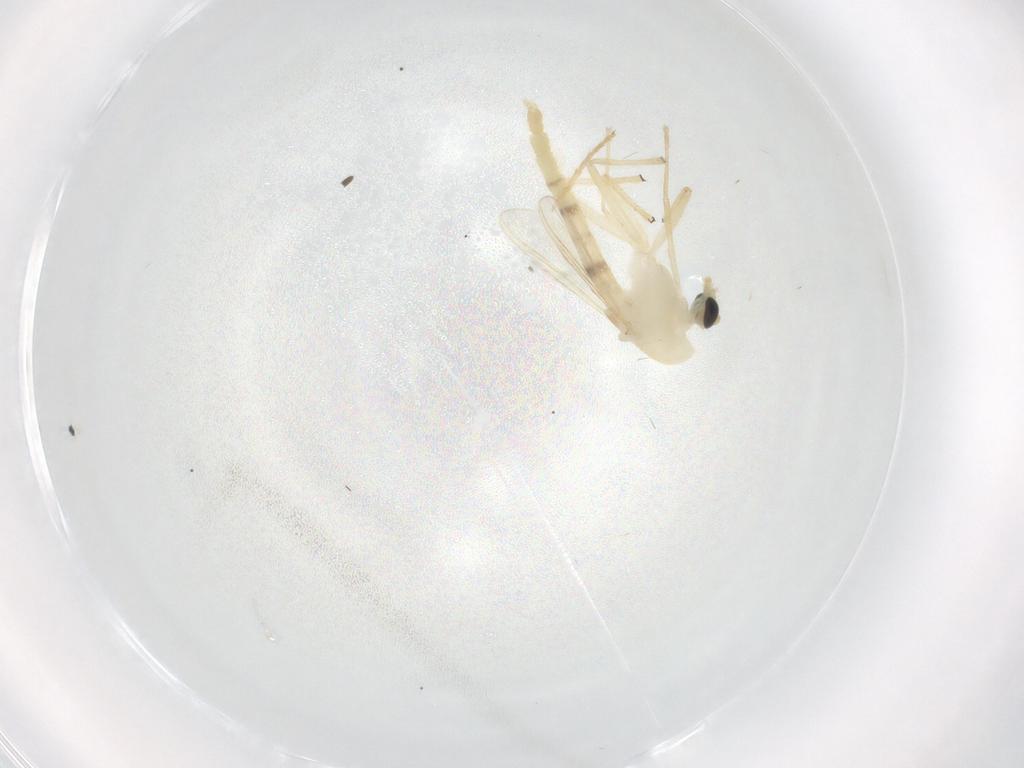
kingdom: Animalia
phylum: Arthropoda
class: Insecta
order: Diptera
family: Chironomidae
